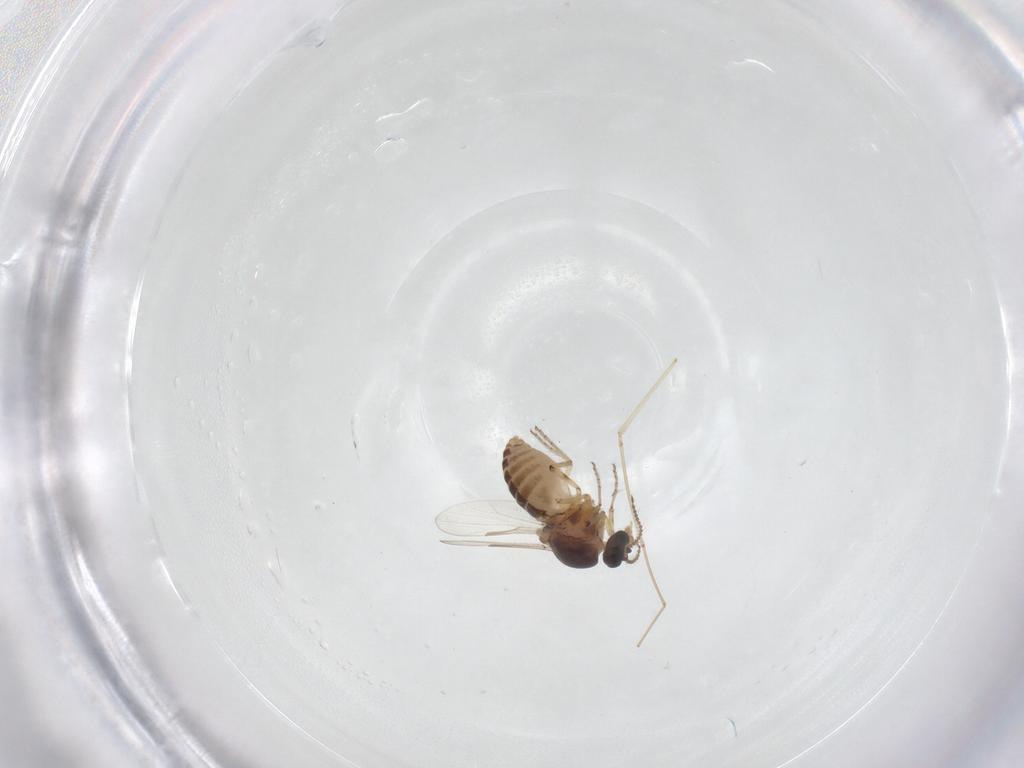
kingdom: Animalia
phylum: Arthropoda
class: Insecta
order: Diptera
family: Ceratopogonidae
